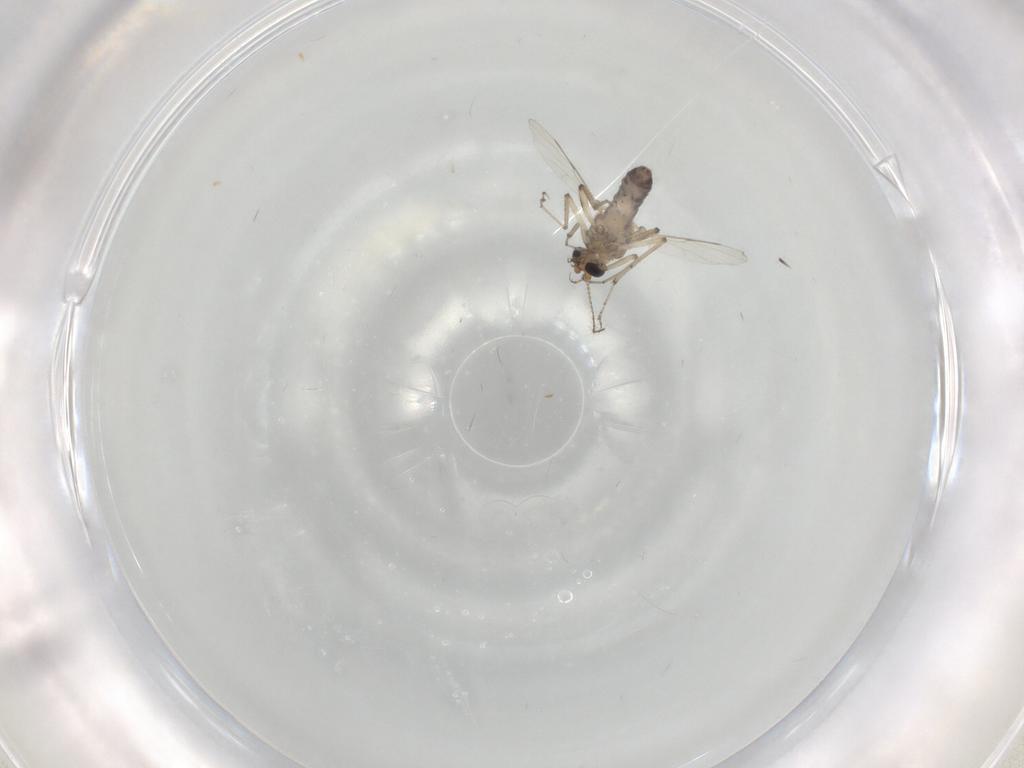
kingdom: Animalia
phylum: Arthropoda
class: Insecta
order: Diptera
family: Ceratopogonidae
